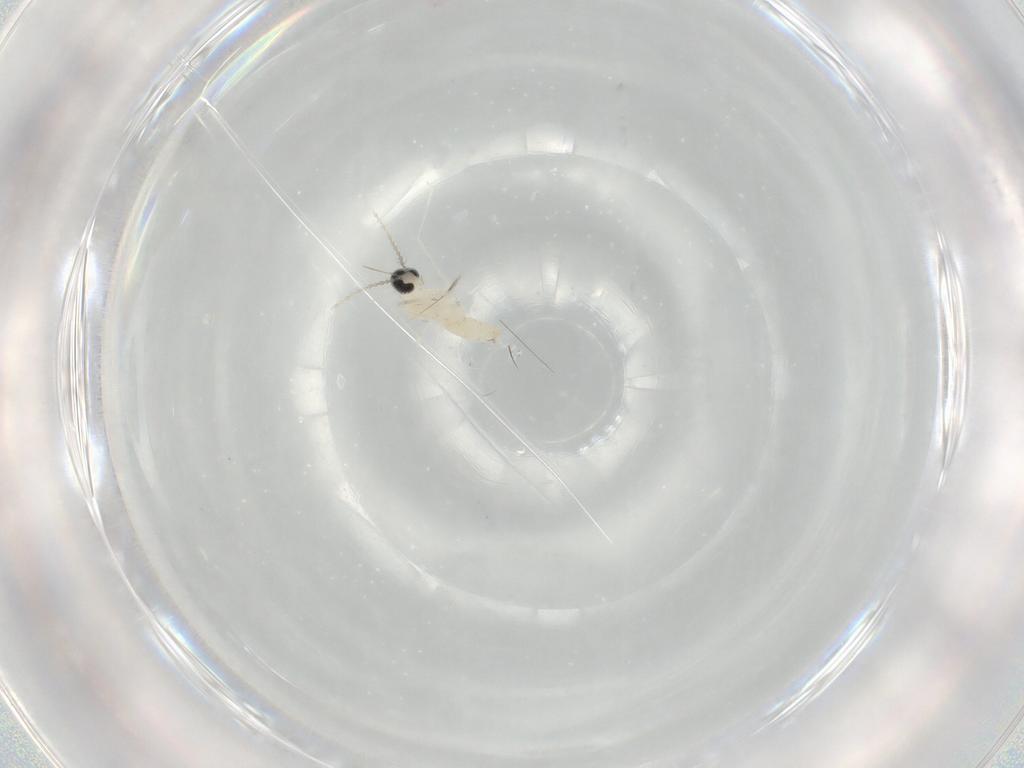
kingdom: Animalia
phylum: Arthropoda
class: Insecta
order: Diptera
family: Cecidomyiidae
